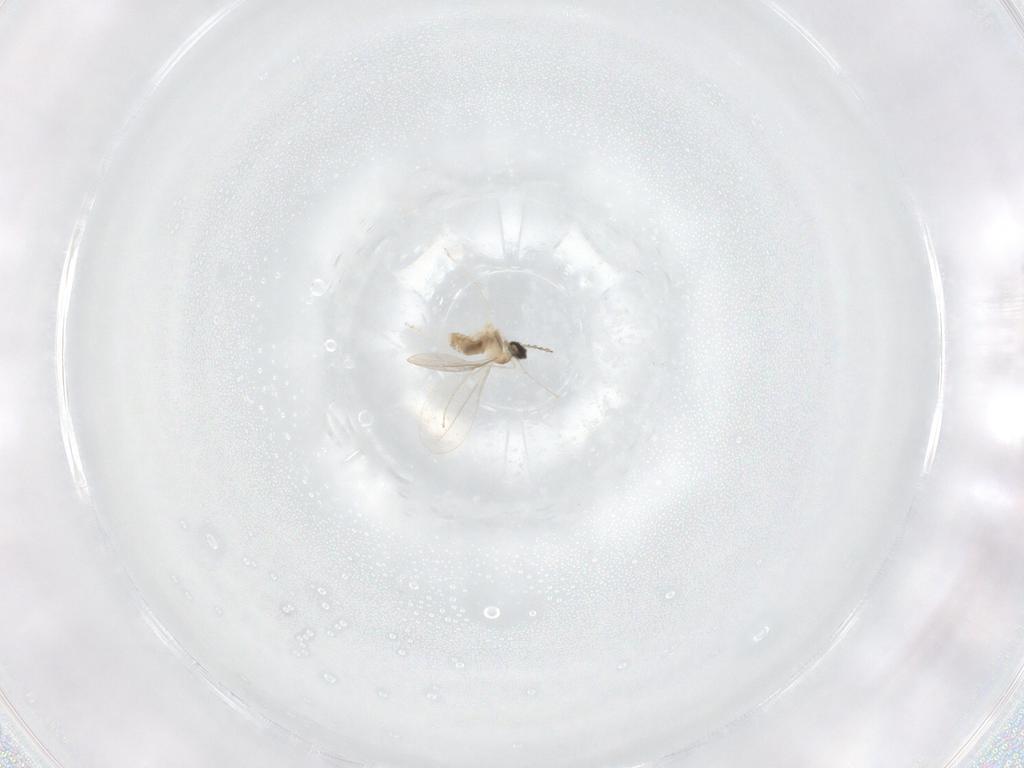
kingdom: Animalia
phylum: Arthropoda
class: Insecta
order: Diptera
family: Cecidomyiidae
